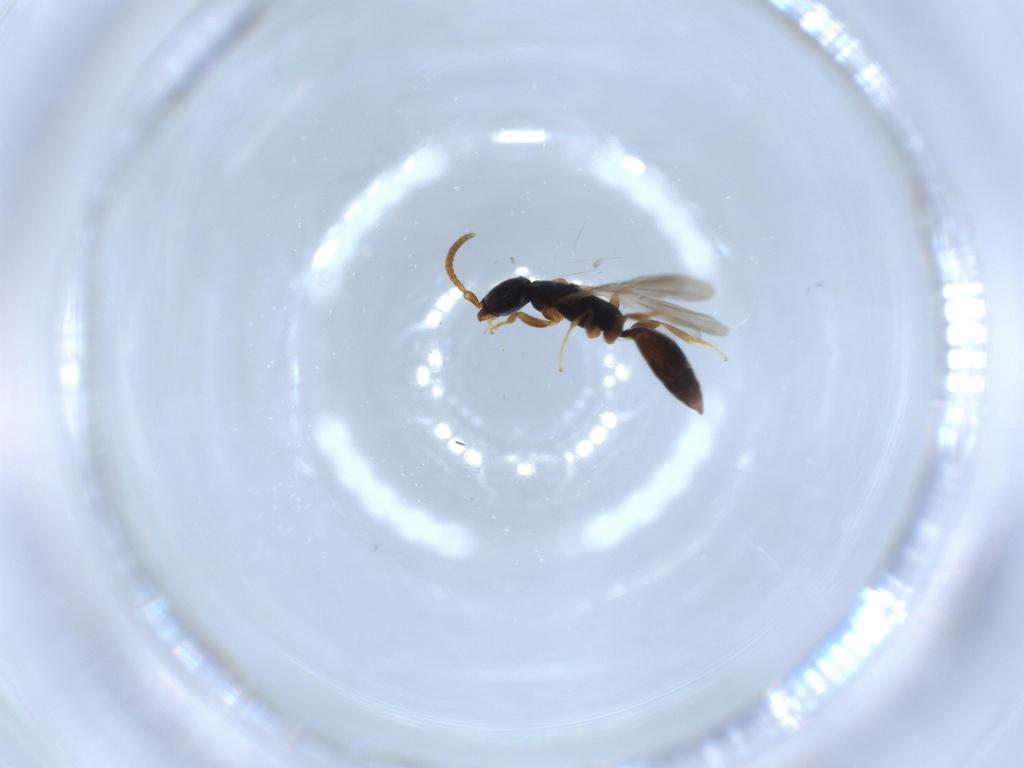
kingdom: Animalia
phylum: Arthropoda
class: Insecta
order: Hymenoptera
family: Bethylidae
